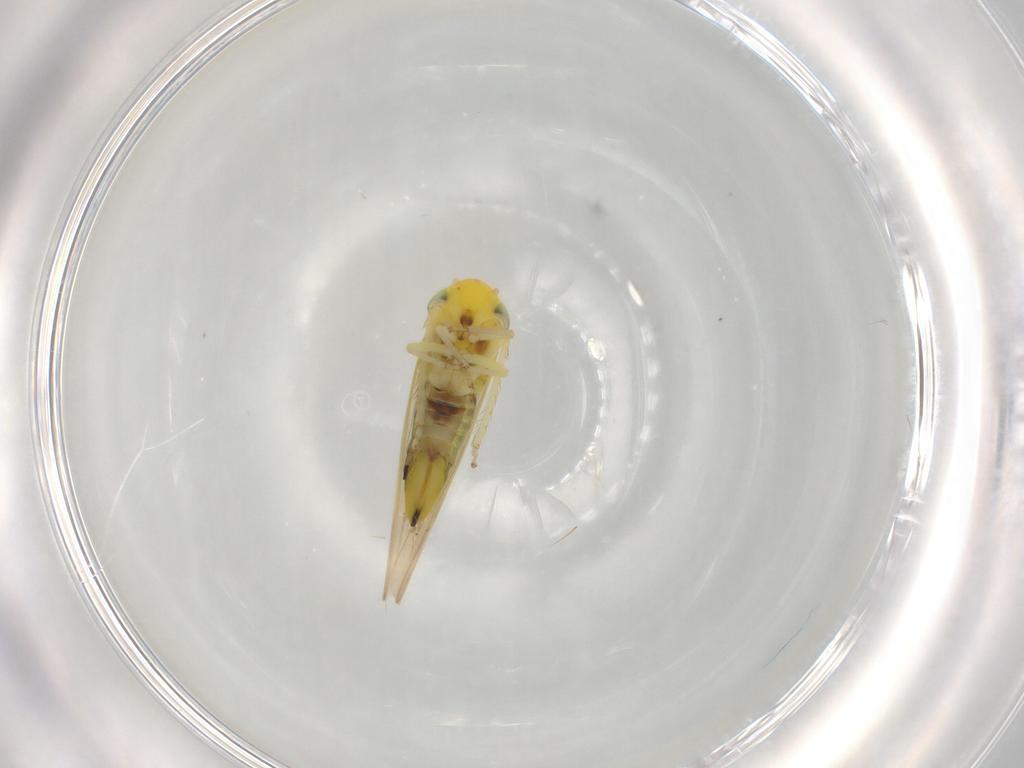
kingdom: Animalia
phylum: Arthropoda
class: Insecta
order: Hemiptera
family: Cicadellidae
